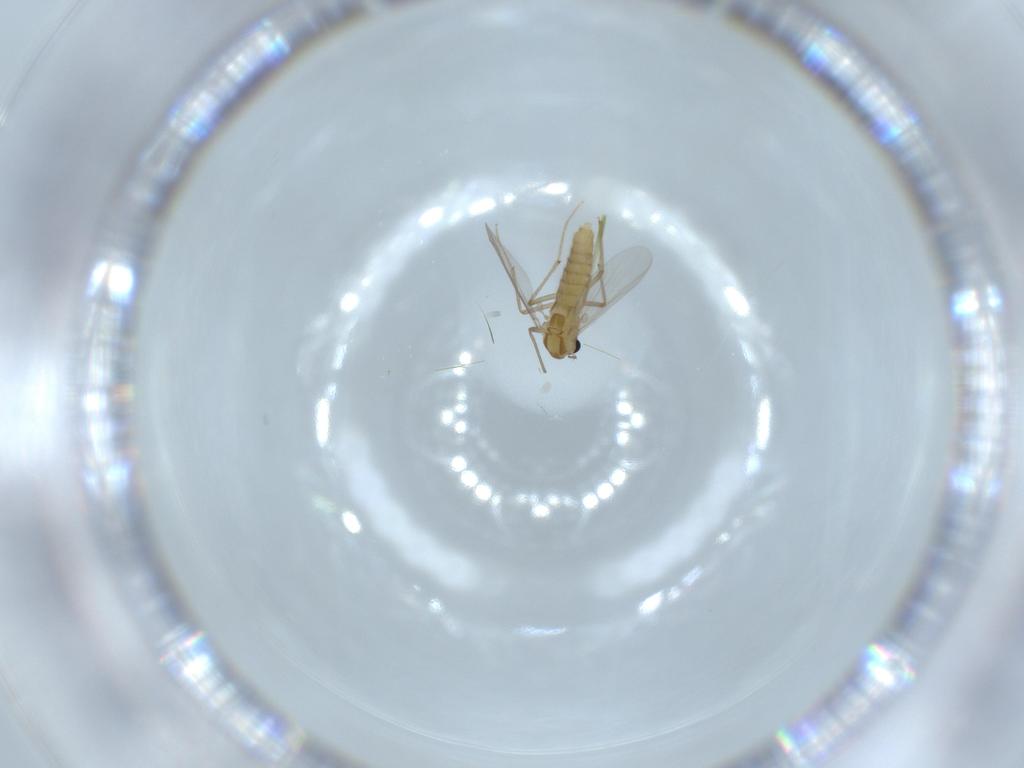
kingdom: Animalia
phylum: Arthropoda
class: Insecta
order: Diptera
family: Chironomidae
